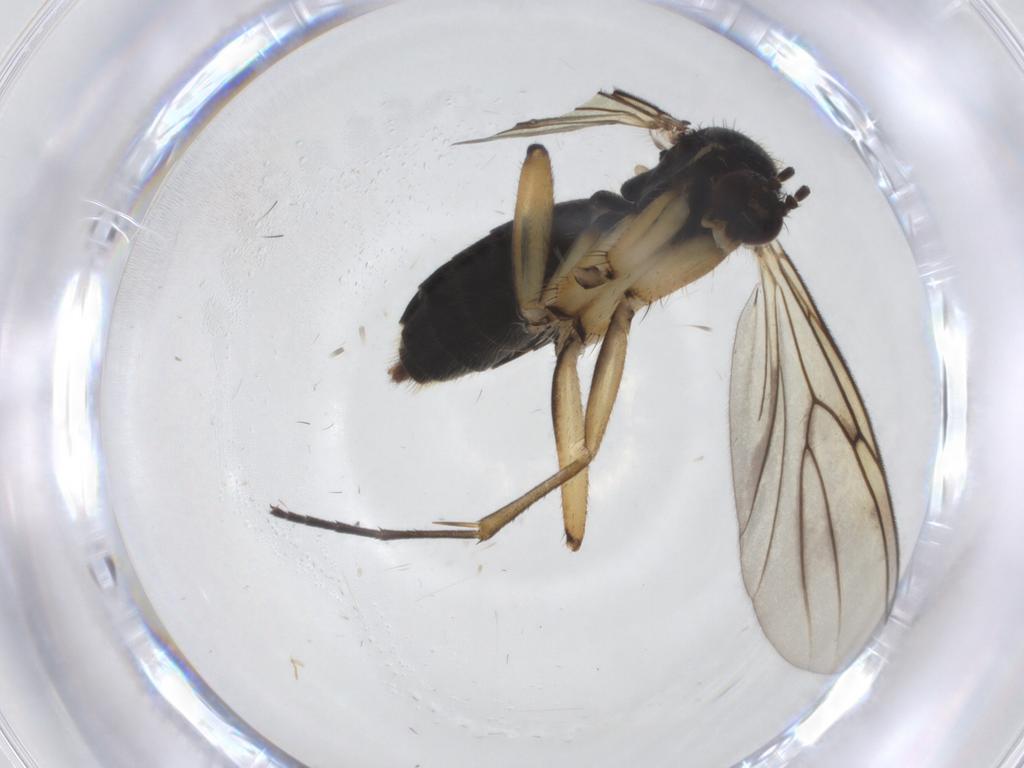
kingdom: Animalia
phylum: Arthropoda
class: Insecta
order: Diptera
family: Mycetophilidae
